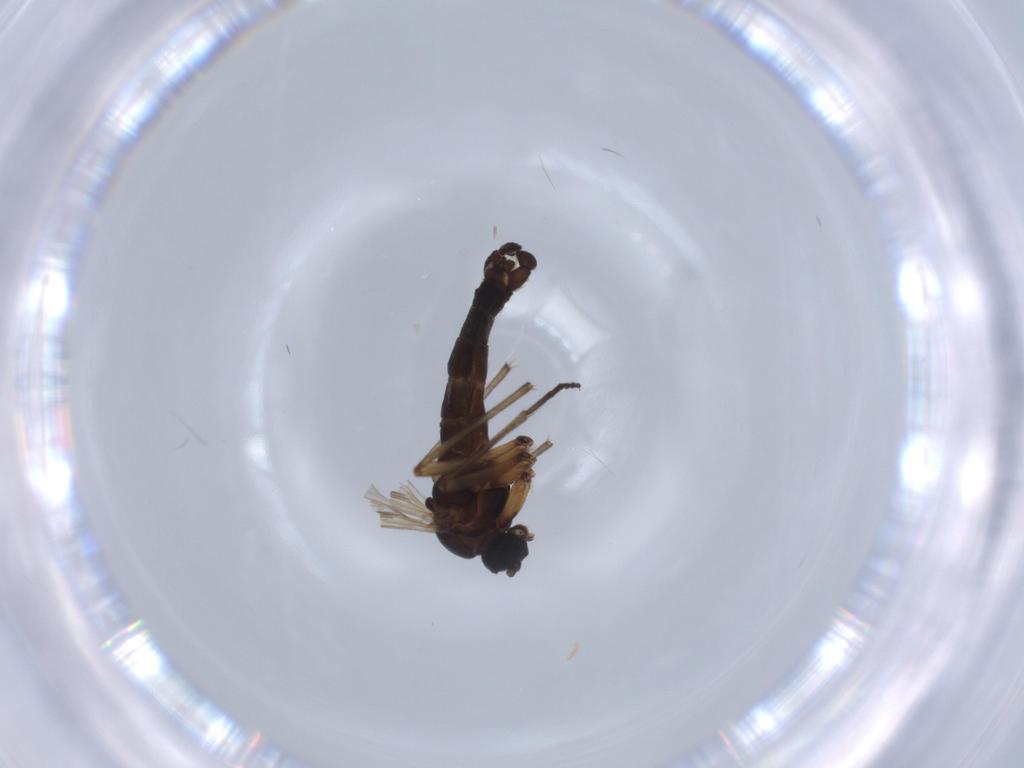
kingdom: Animalia
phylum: Arthropoda
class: Insecta
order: Diptera
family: Sciaridae
